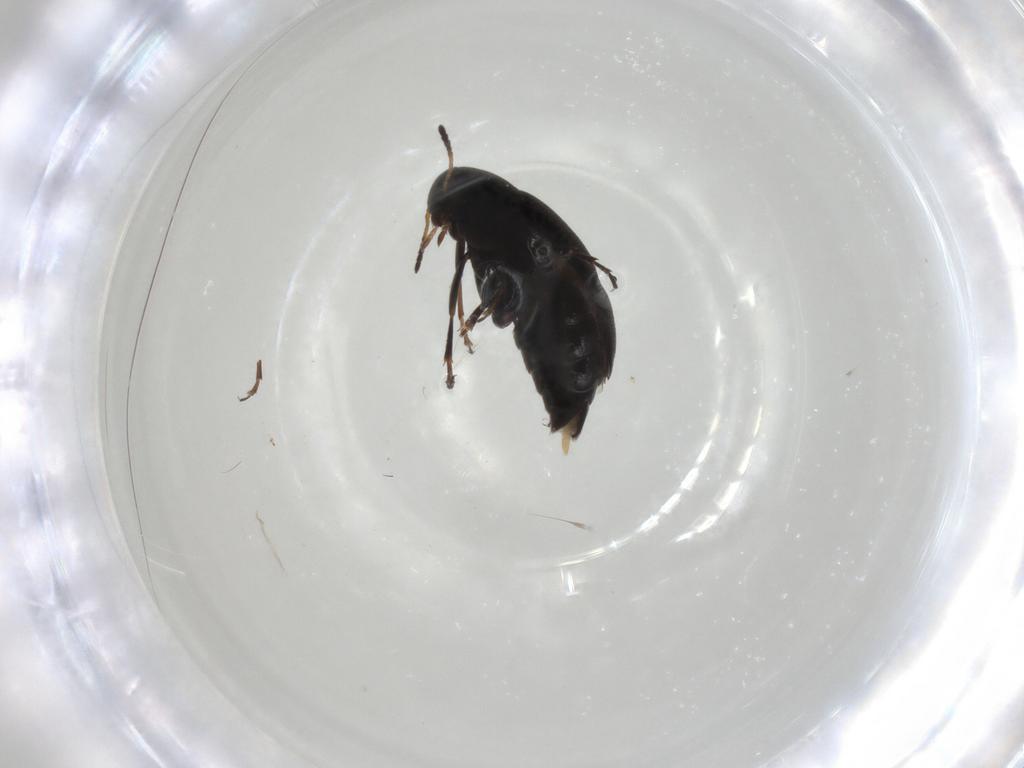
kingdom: Animalia
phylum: Arthropoda
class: Insecta
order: Coleoptera
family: Scraptiidae
